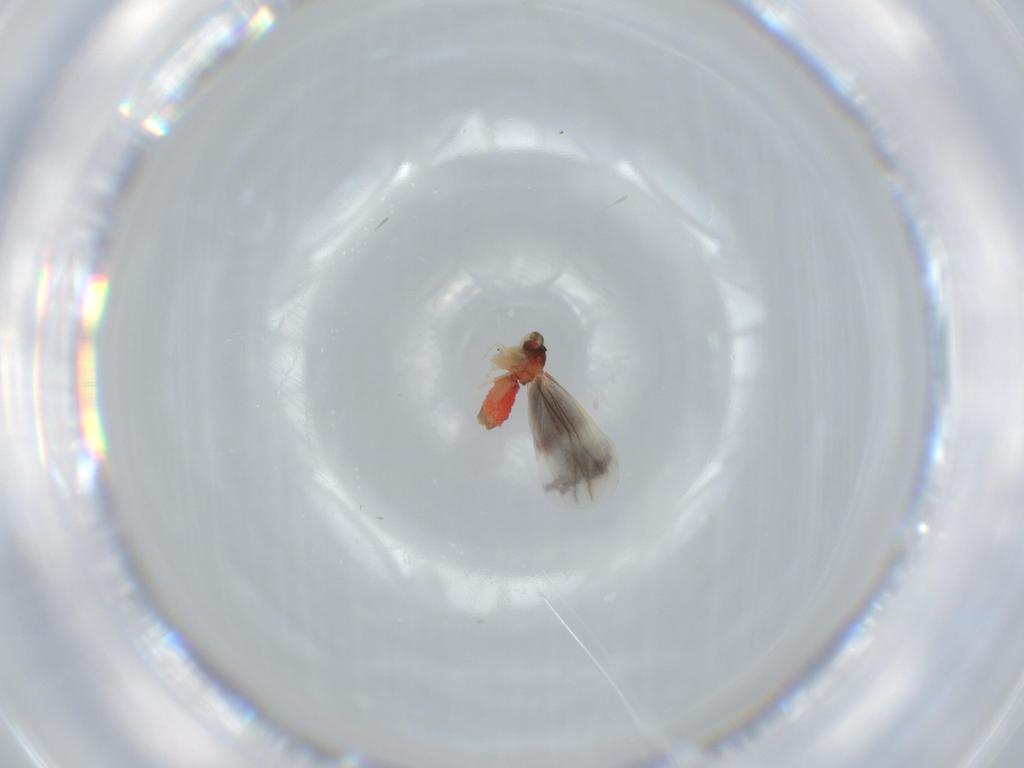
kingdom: Animalia
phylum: Arthropoda
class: Insecta
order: Hemiptera
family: Aleyrodidae
